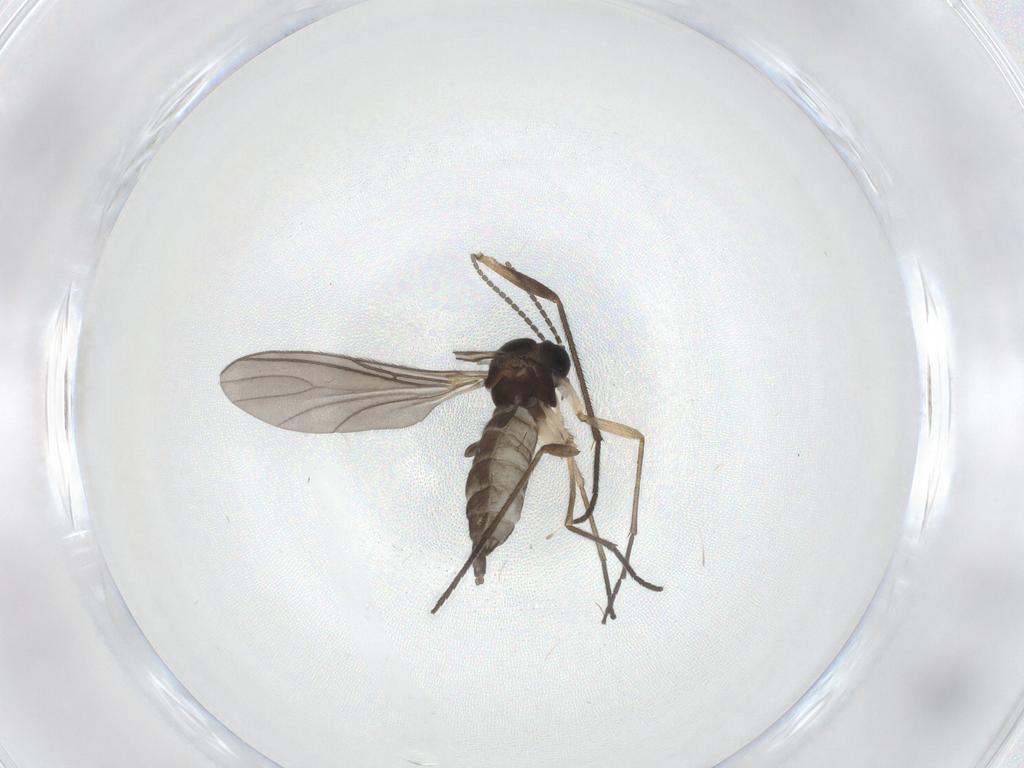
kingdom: Animalia
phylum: Arthropoda
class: Insecta
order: Diptera
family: Sciaridae
